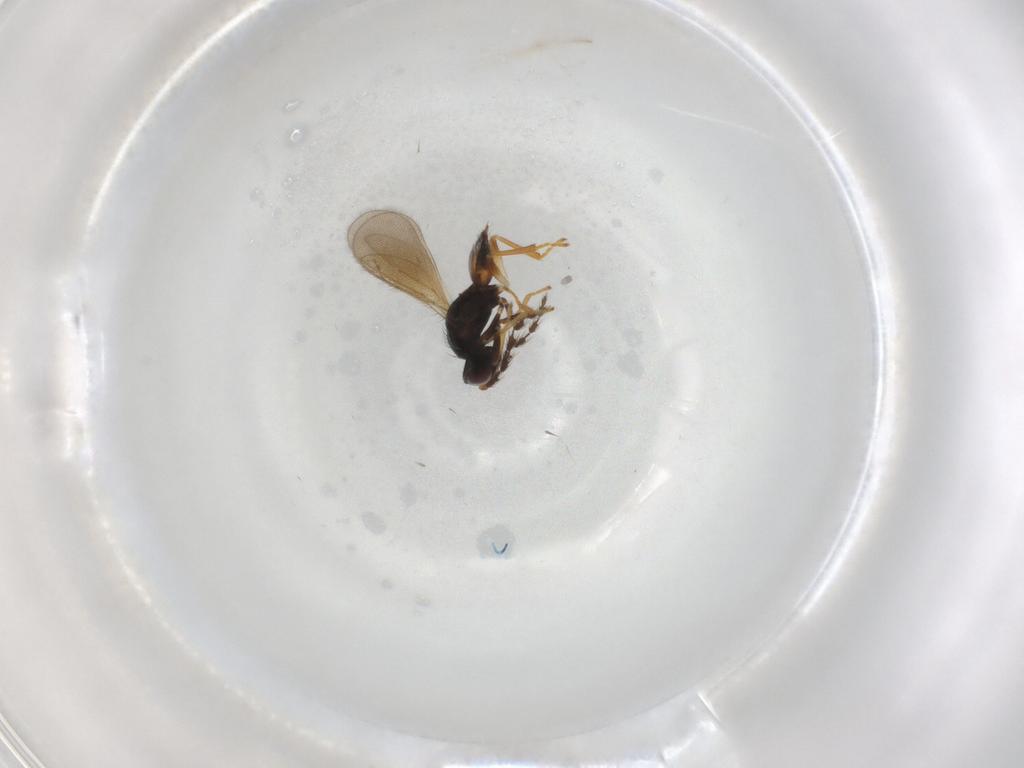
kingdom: Animalia
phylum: Arthropoda
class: Insecta
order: Hymenoptera
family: Eulophidae
